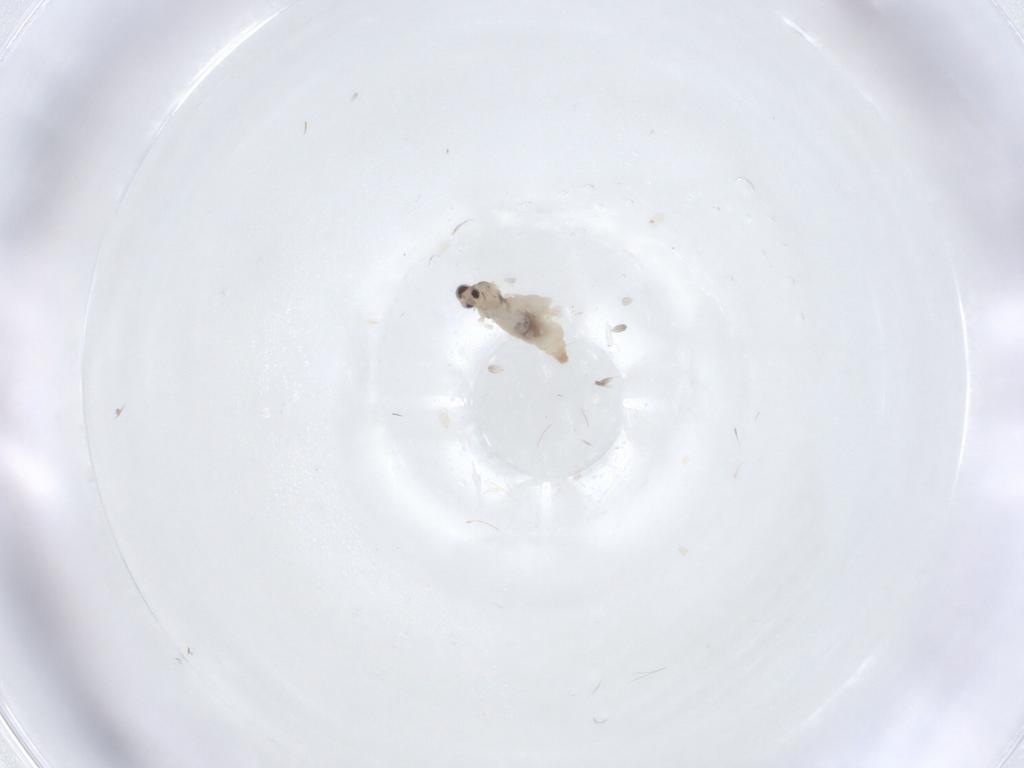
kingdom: Animalia
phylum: Arthropoda
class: Insecta
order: Diptera
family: Cecidomyiidae
